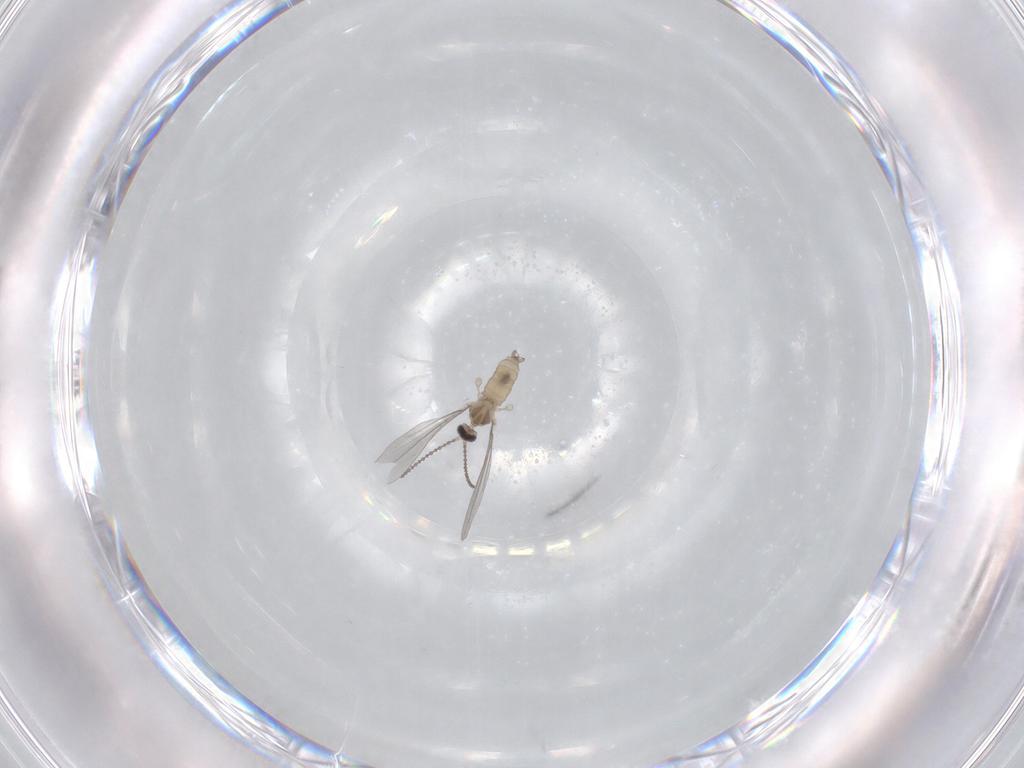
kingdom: Animalia
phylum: Arthropoda
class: Insecta
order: Diptera
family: Cecidomyiidae
